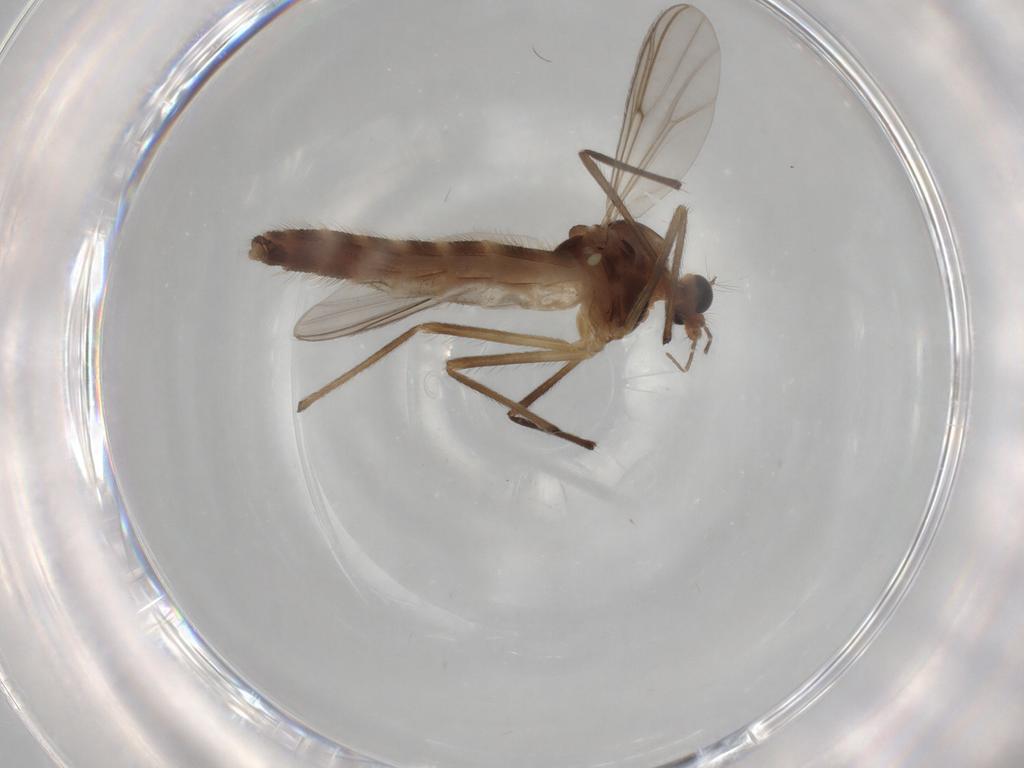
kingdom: Animalia
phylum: Arthropoda
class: Insecta
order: Diptera
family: Chironomidae
